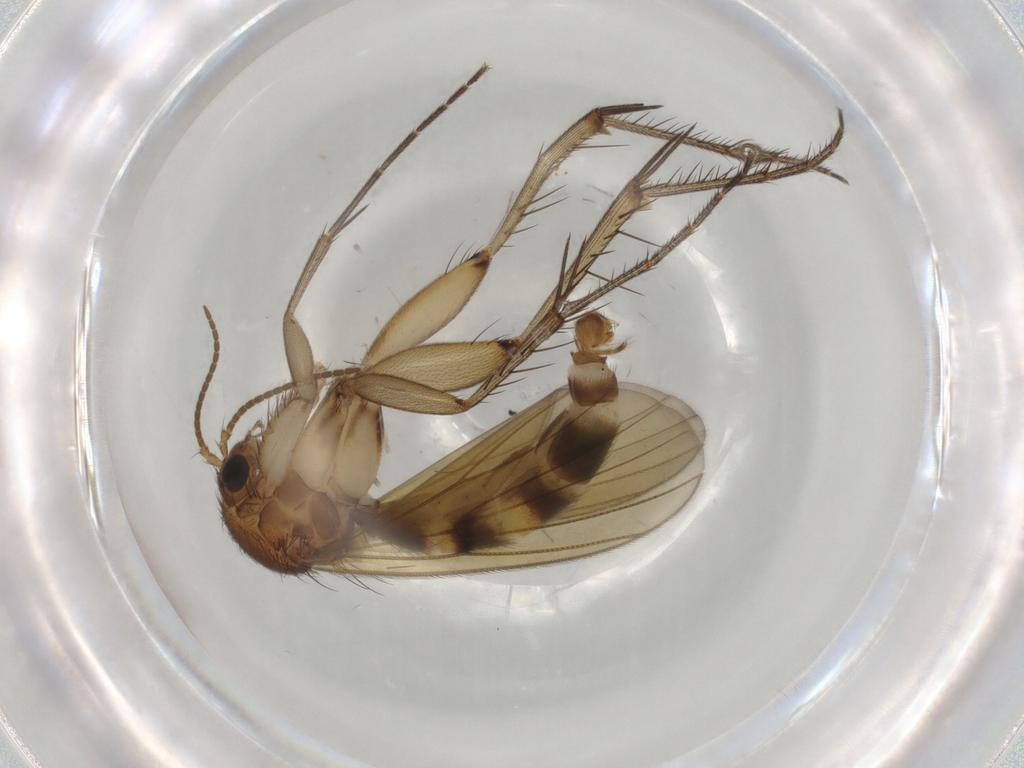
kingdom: Animalia
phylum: Arthropoda
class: Insecta
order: Diptera
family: Mycetophilidae
